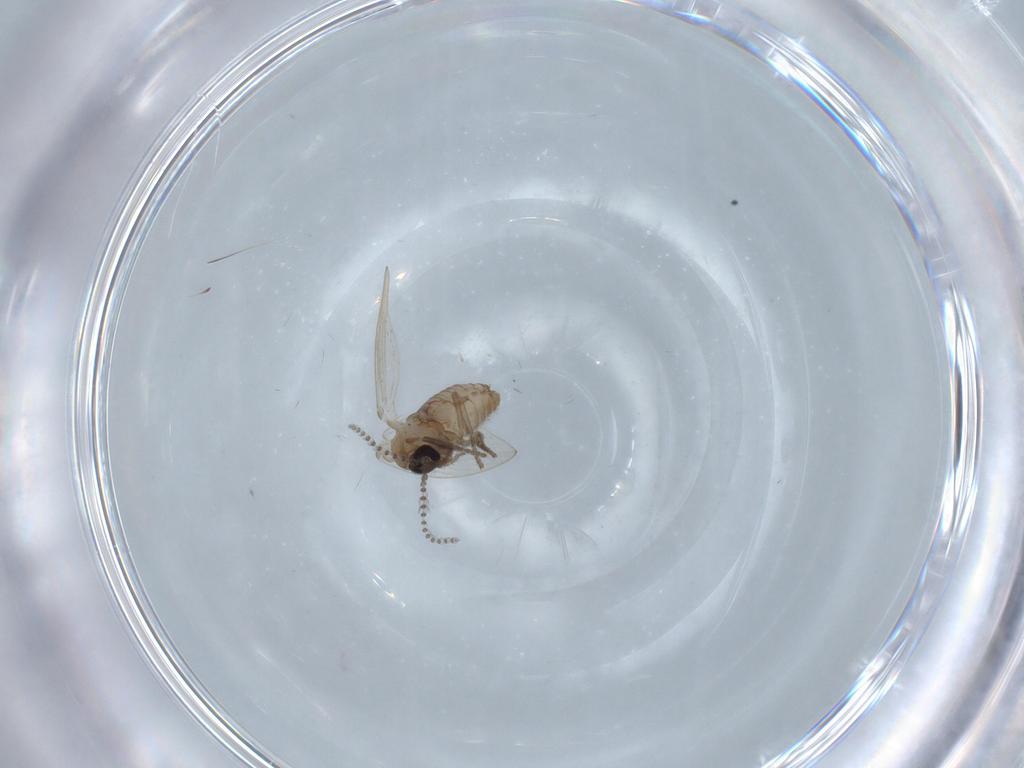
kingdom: Animalia
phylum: Arthropoda
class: Insecta
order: Diptera
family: Psychodidae
